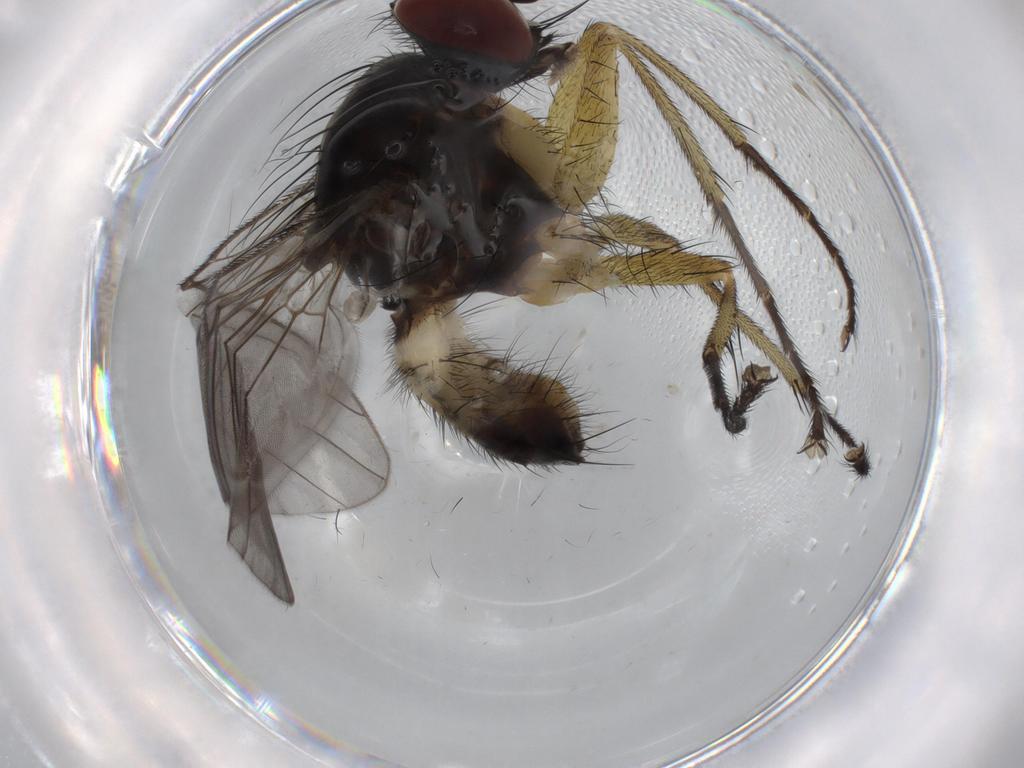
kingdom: Animalia
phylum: Arthropoda
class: Insecta
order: Diptera
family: Muscidae
